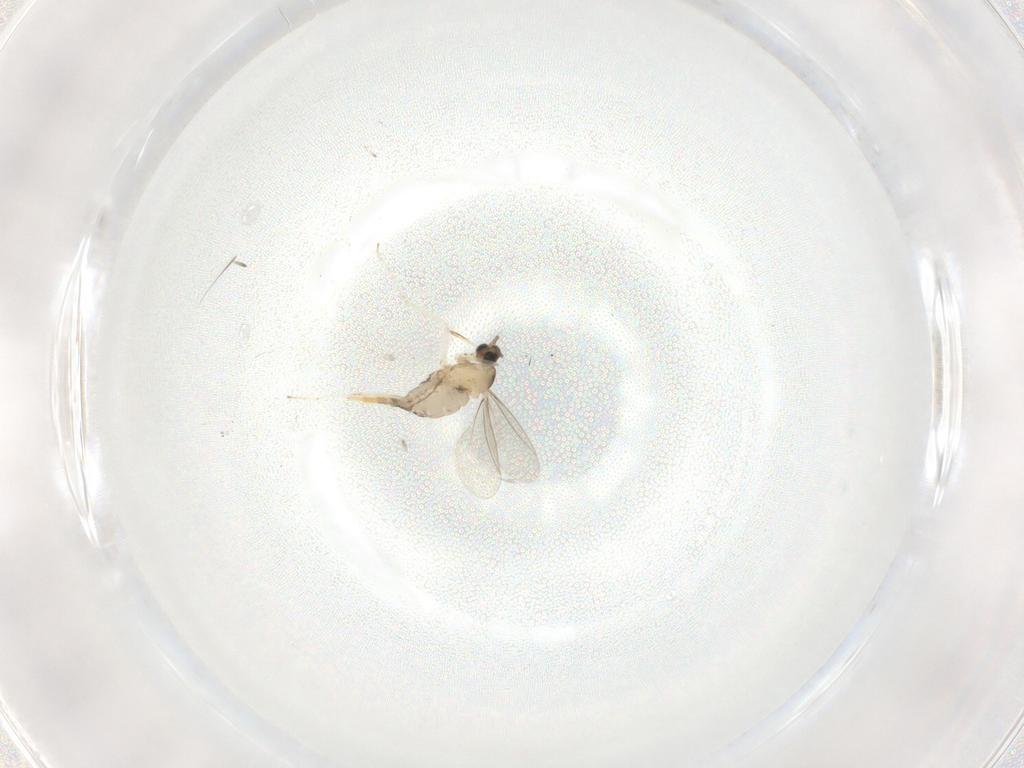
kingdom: Animalia
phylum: Arthropoda
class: Insecta
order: Diptera
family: Cecidomyiidae
